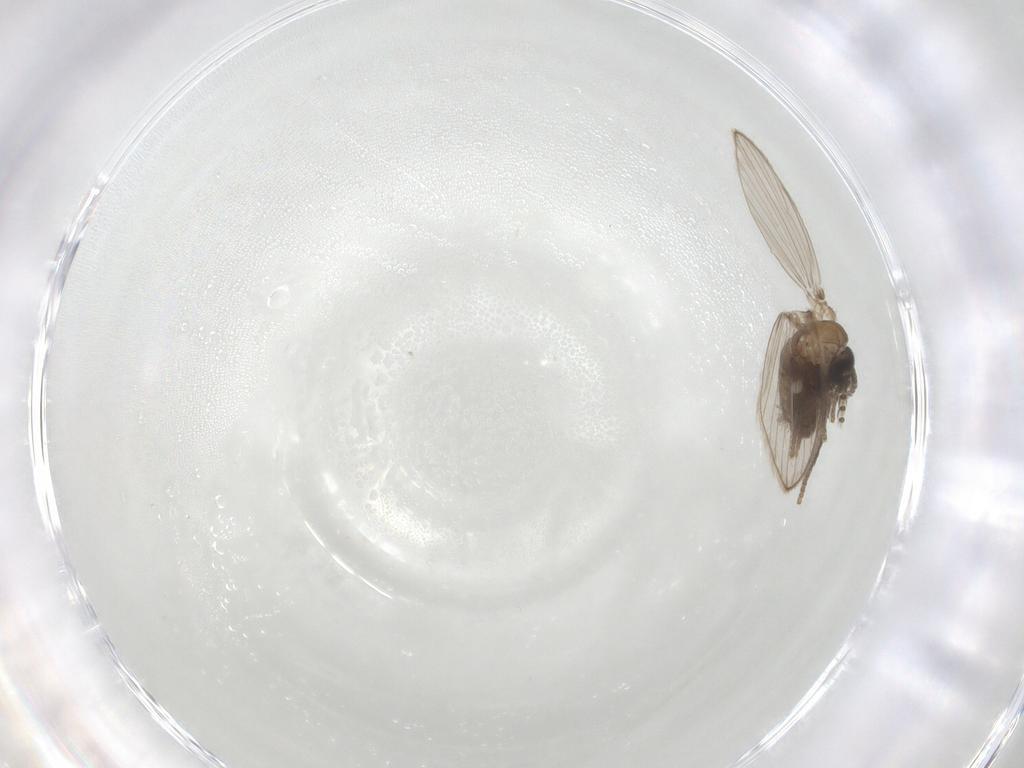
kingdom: Animalia
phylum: Arthropoda
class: Insecta
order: Diptera
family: Psychodidae
